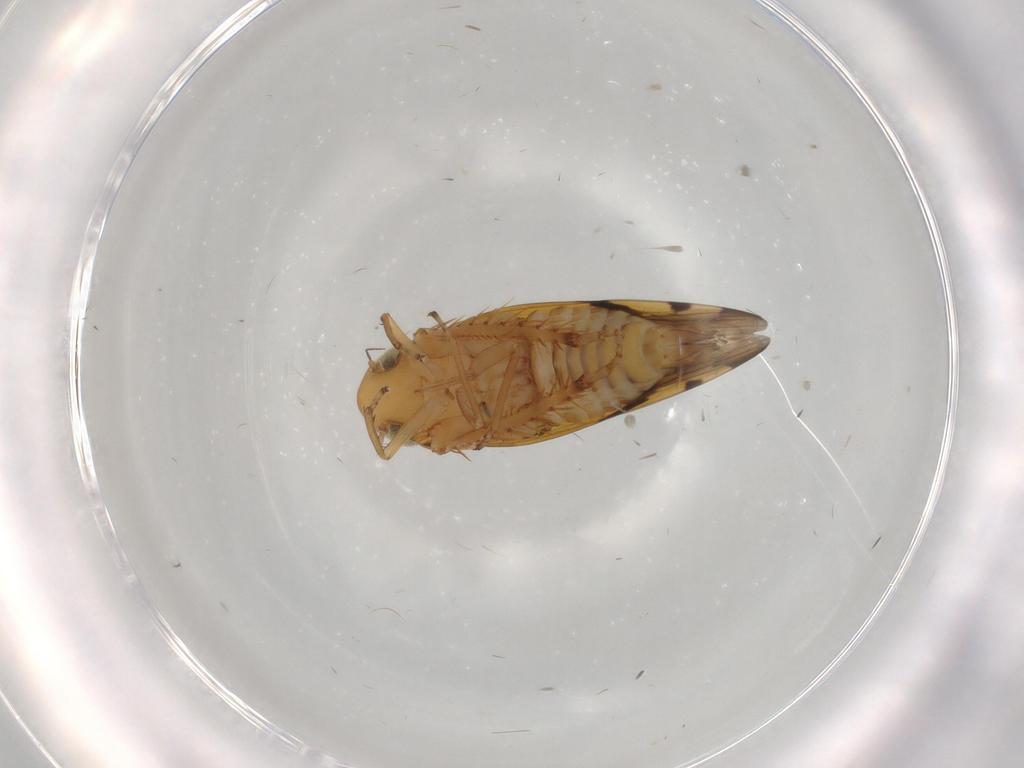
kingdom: Animalia
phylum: Arthropoda
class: Insecta
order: Hemiptera
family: Cicadellidae
